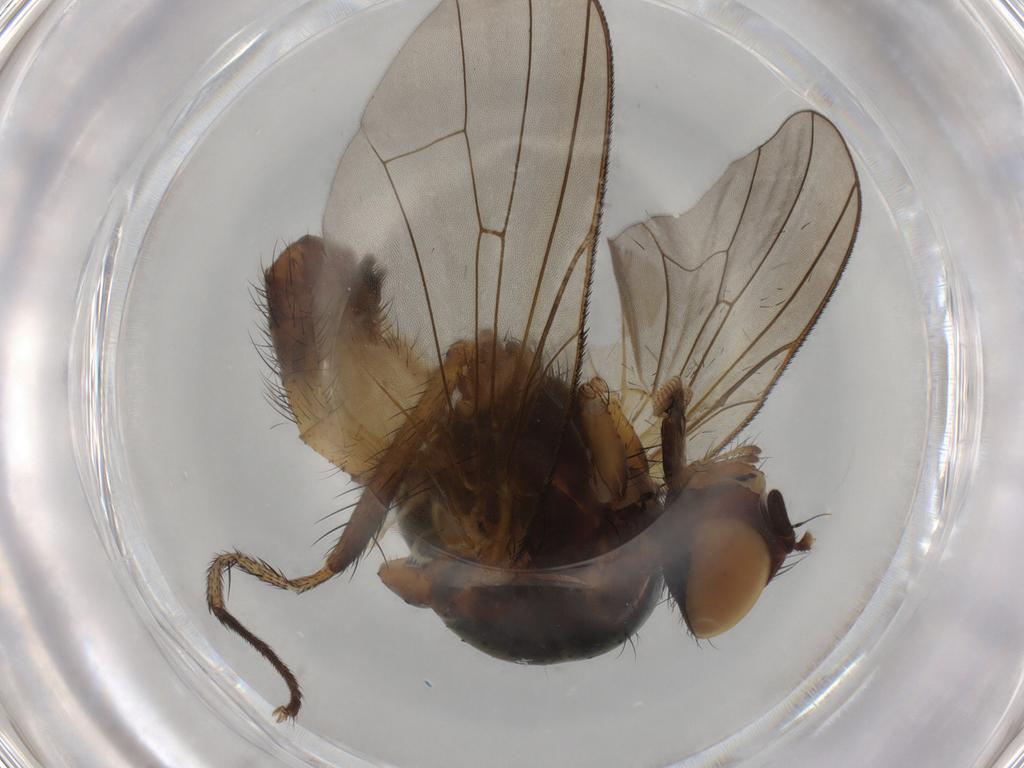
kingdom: Animalia
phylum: Arthropoda
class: Insecta
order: Diptera
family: Anthomyiidae
